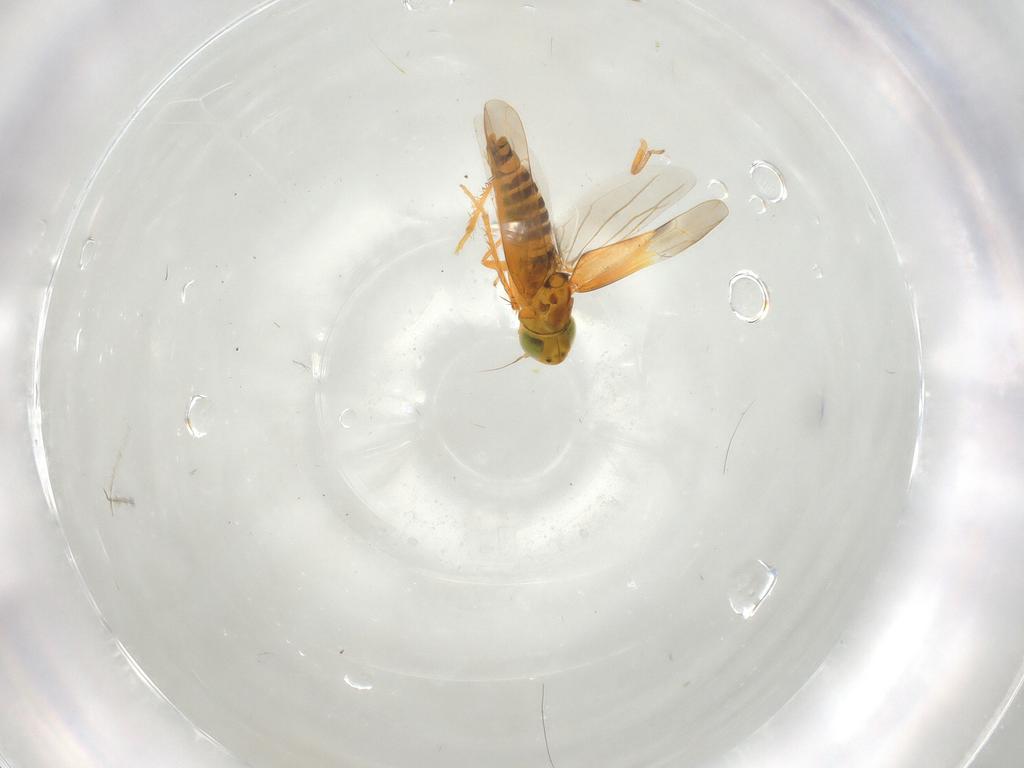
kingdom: Animalia
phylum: Arthropoda
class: Insecta
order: Hemiptera
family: Cicadellidae
